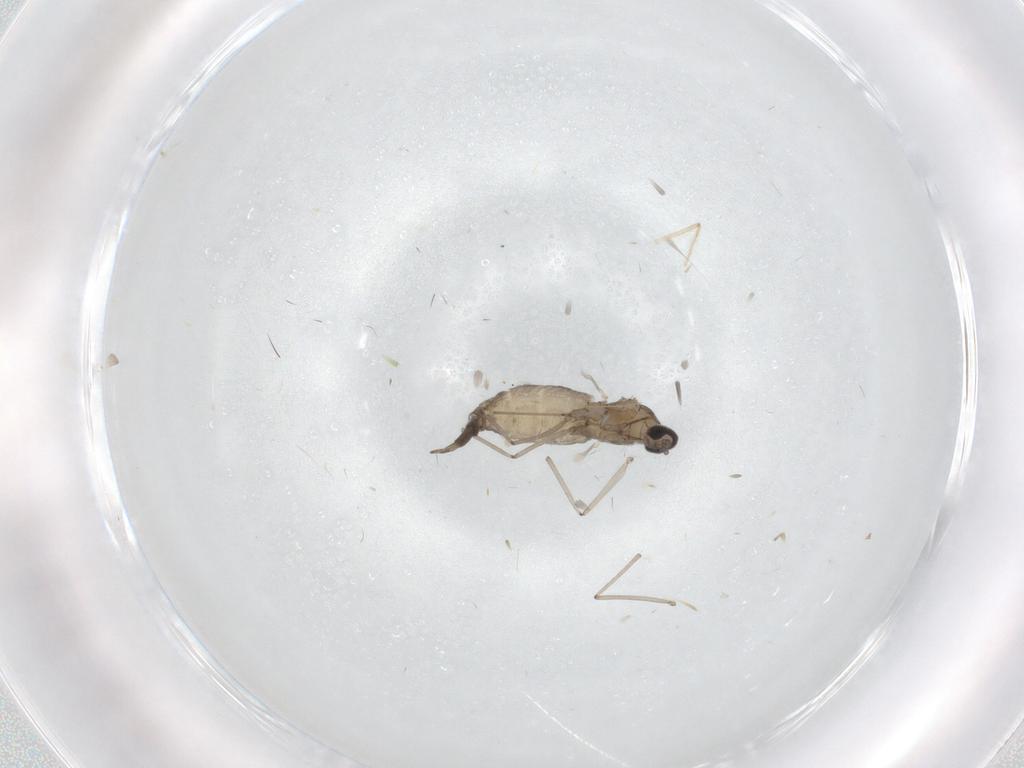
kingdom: Animalia
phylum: Arthropoda
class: Insecta
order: Diptera
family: Cecidomyiidae
